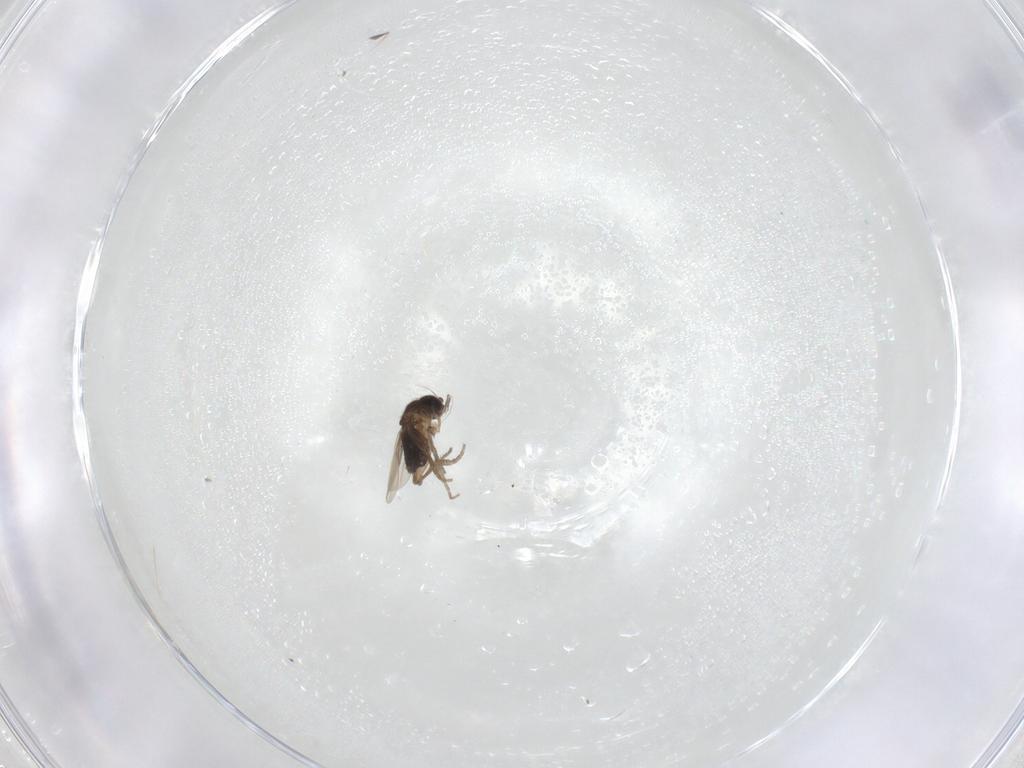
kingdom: Animalia
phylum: Arthropoda
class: Insecta
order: Diptera
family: Phoridae
